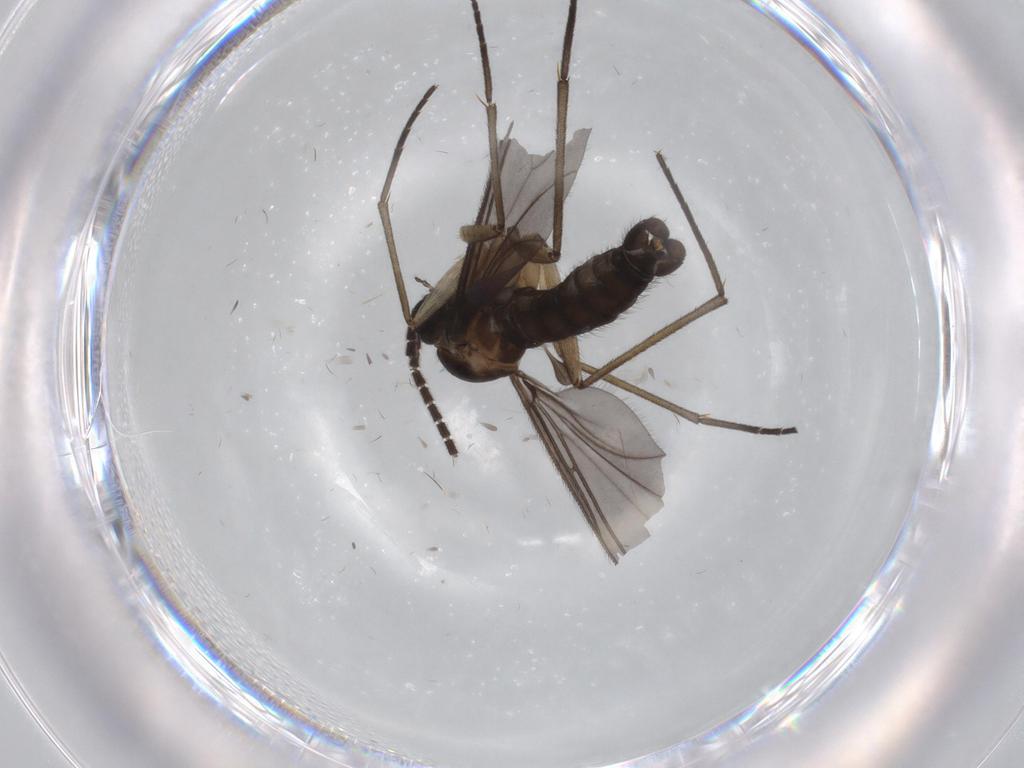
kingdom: Animalia
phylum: Arthropoda
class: Insecta
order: Diptera
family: Sciaridae
